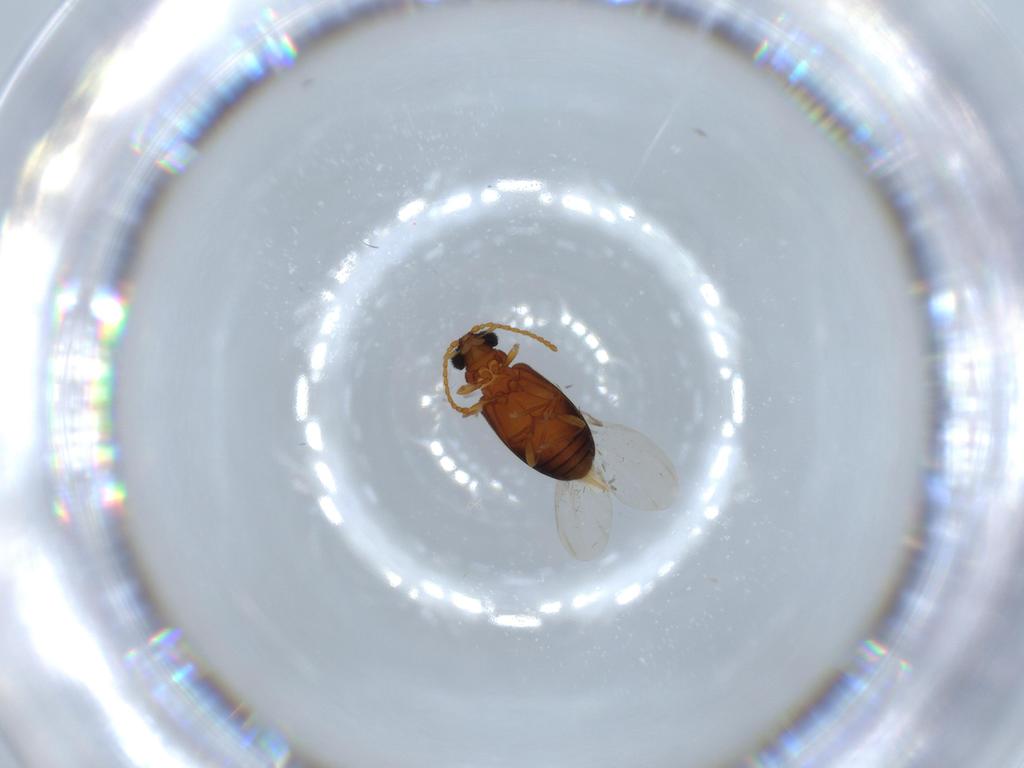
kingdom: Animalia
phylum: Arthropoda
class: Insecta
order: Coleoptera
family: Aderidae
